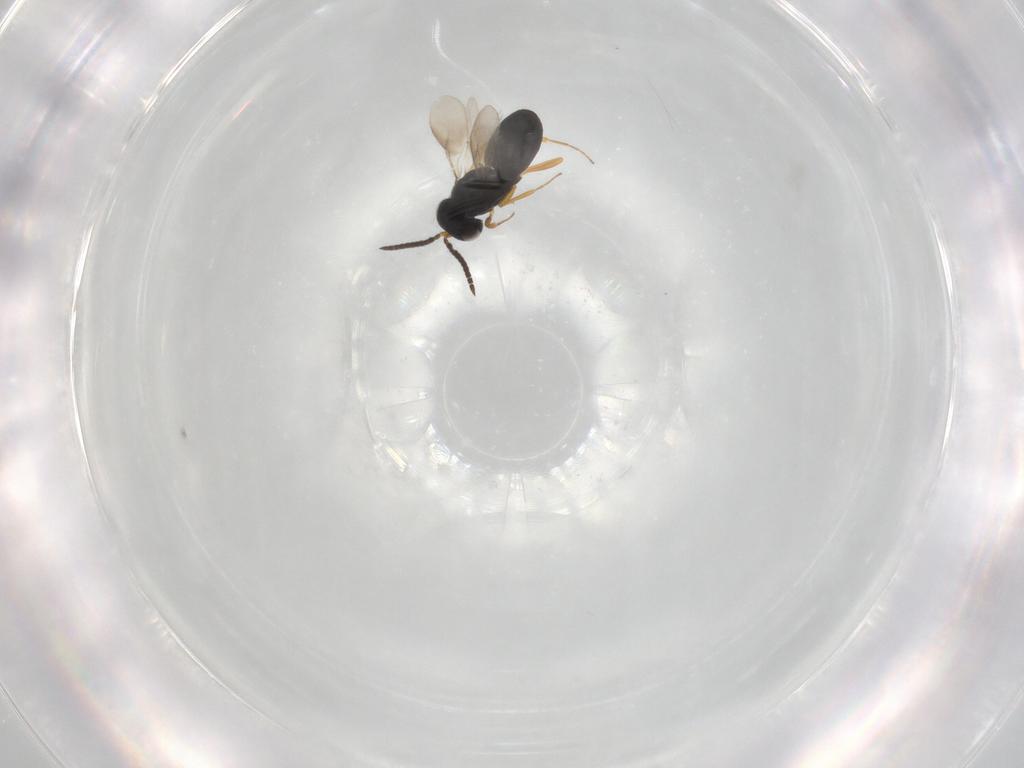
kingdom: Animalia
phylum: Arthropoda
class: Insecta
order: Hymenoptera
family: Scelionidae
